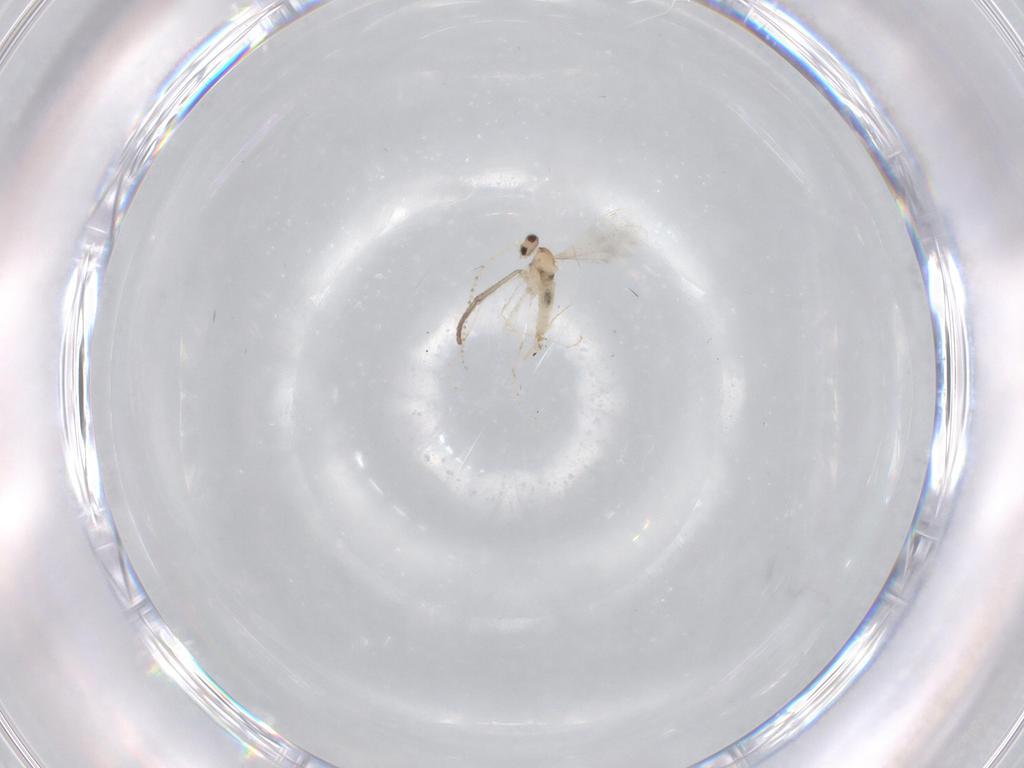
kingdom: Animalia
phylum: Arthropoda
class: Insecta
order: Diptera
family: Cecidomyiidae
